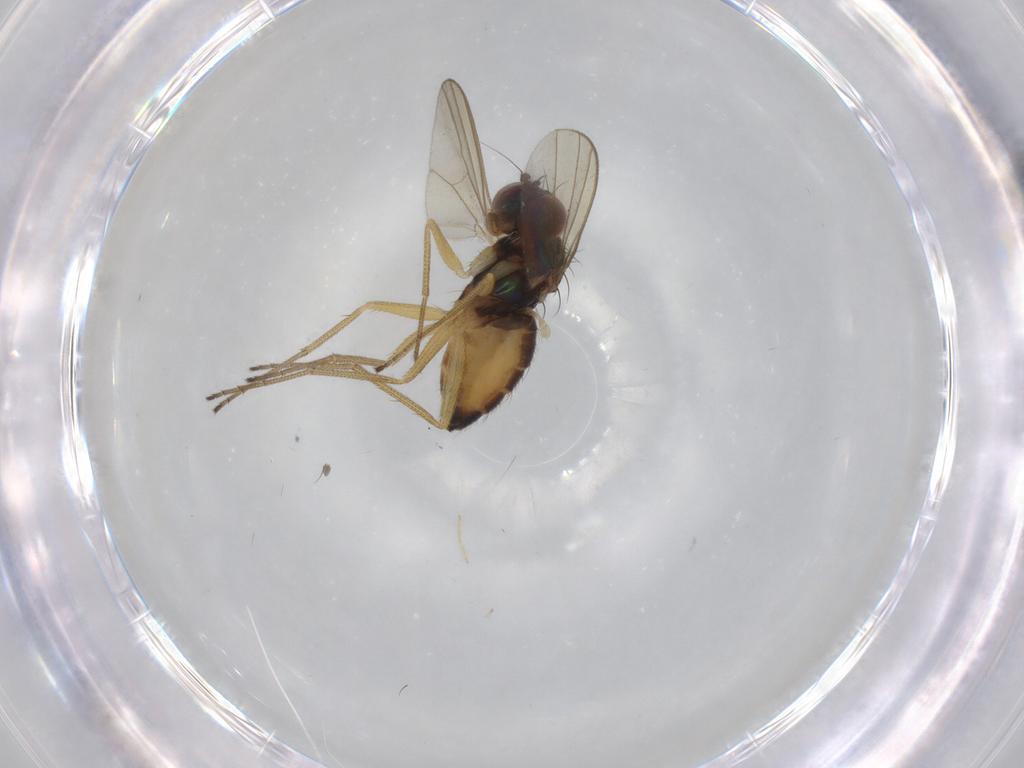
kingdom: Animalia
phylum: Arthropoda
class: Insecta
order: Diptera
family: Dolichopodidae
